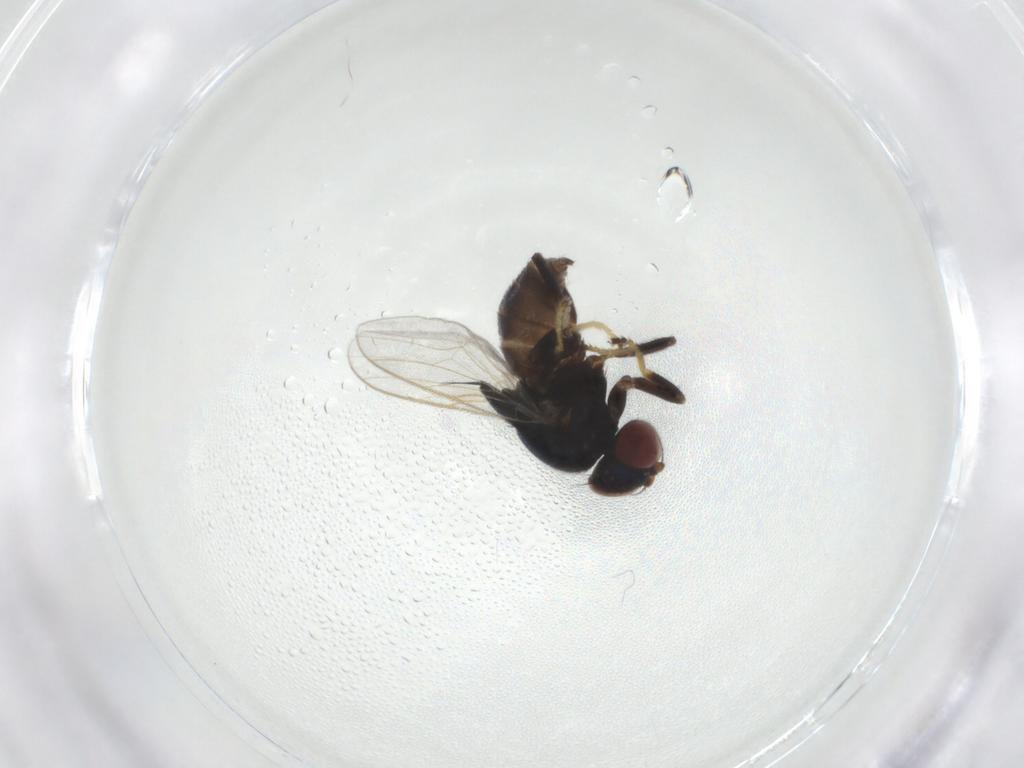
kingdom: Animalia
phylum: Arthropoda
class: Insecta
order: Diptera
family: Chloropidae
